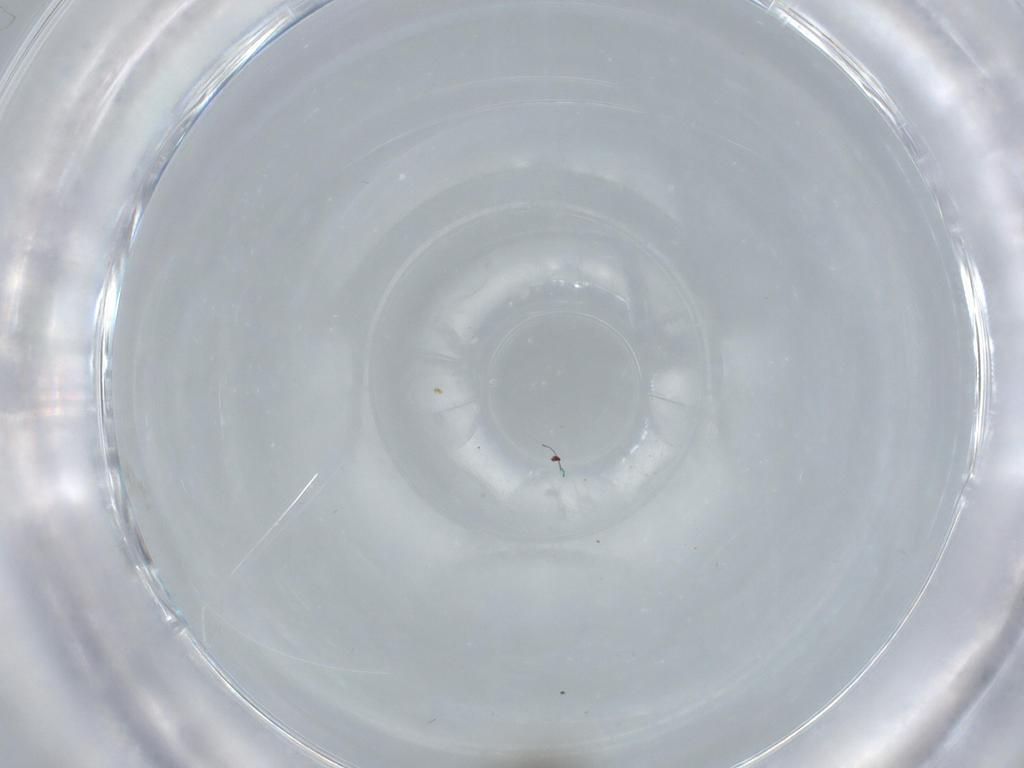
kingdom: Animalia
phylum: Arthropoda
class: Insecta
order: Diptera
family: Ceratopogonidae
